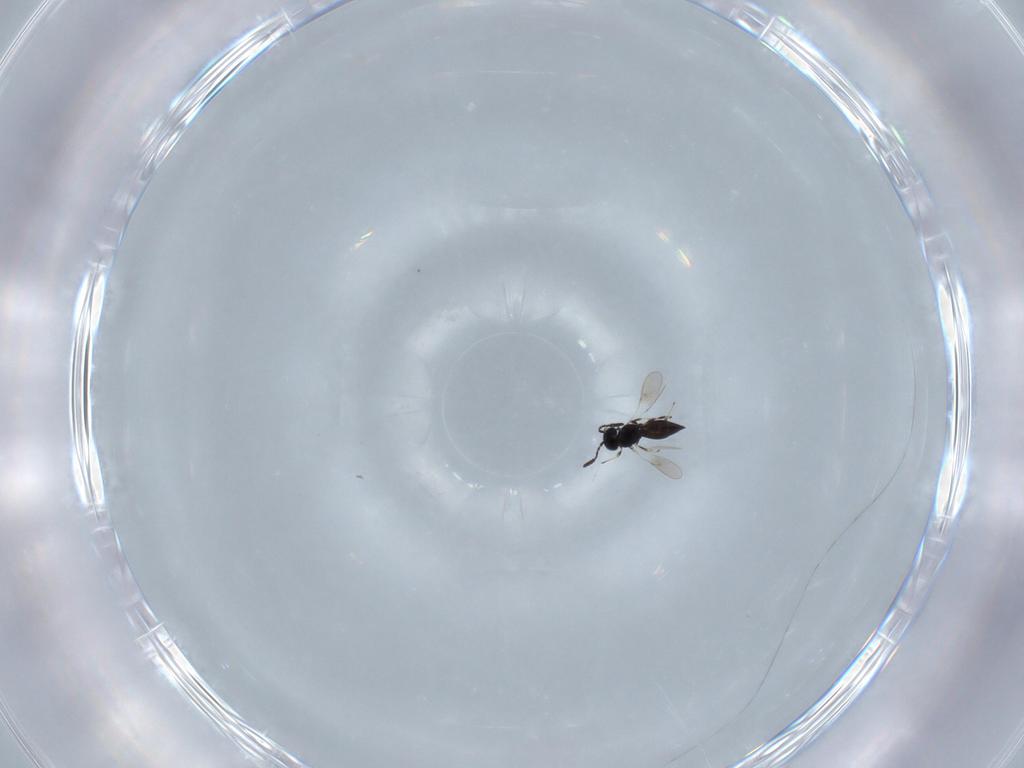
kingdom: Animalia
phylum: Arthropoda
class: Insecta
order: Hymenoptera
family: Scelionidae
